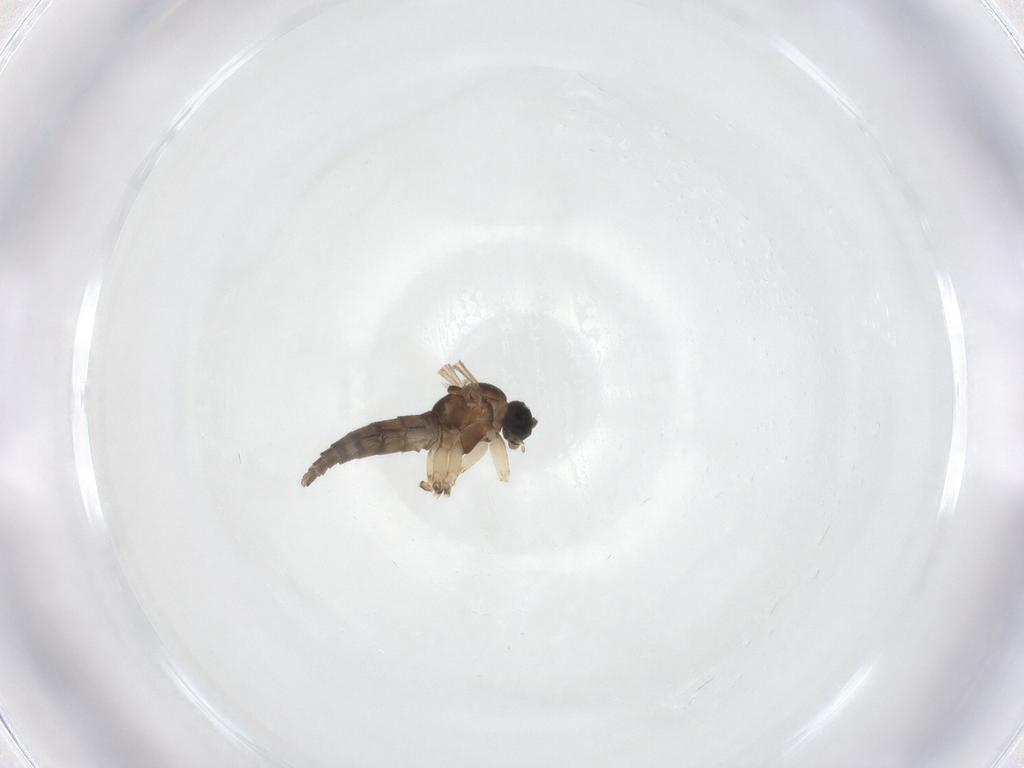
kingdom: Animalia
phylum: Arthropoda
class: Insecta
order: Diptera
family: Sciaridae
